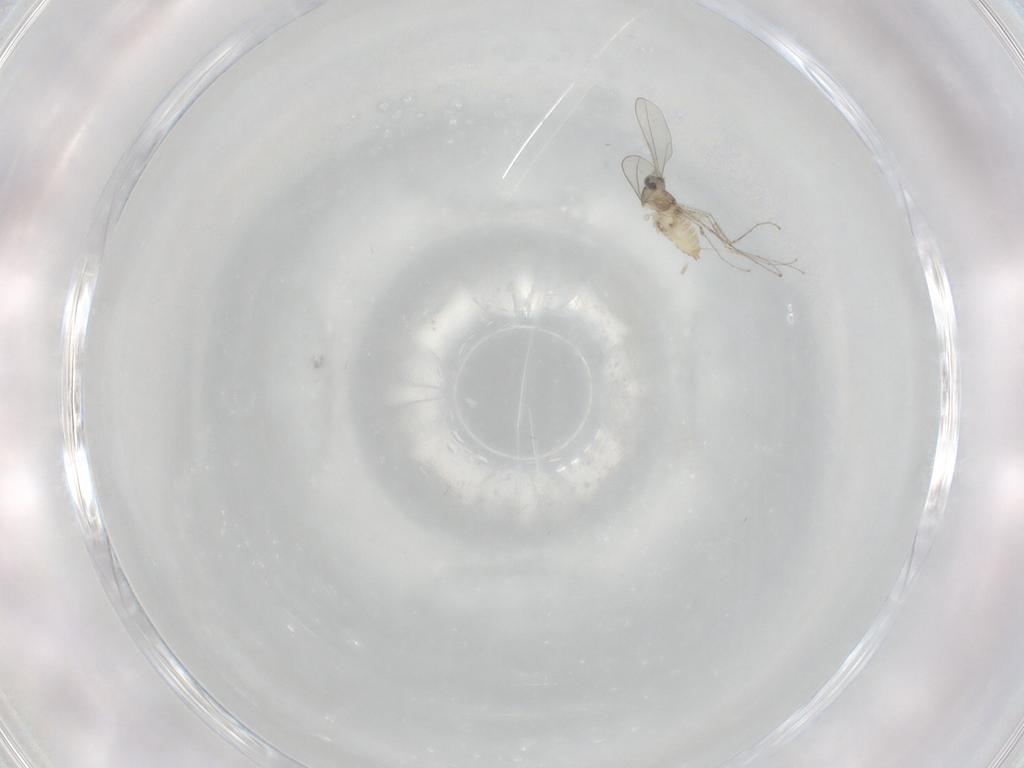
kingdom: Animalia
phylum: Arthropoda
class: Insecta
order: Diptera
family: Cecidomyiidae
